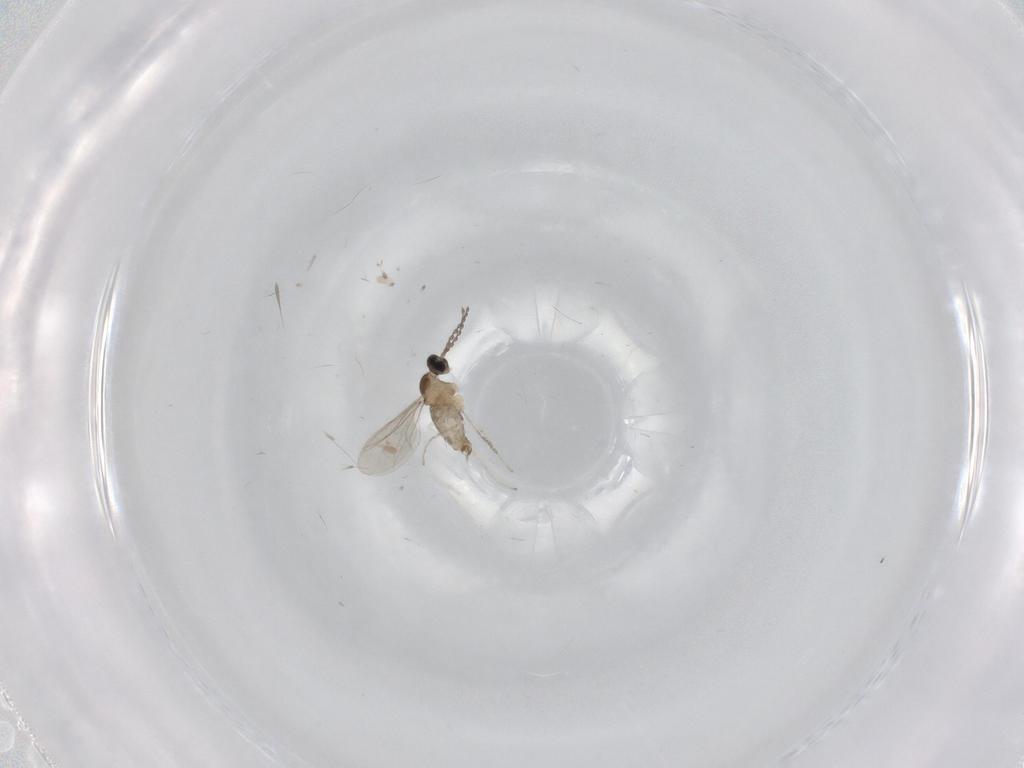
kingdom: Animalia
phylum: Arthropoda
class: Insecta
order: Diptera
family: Cecidomyiidae
